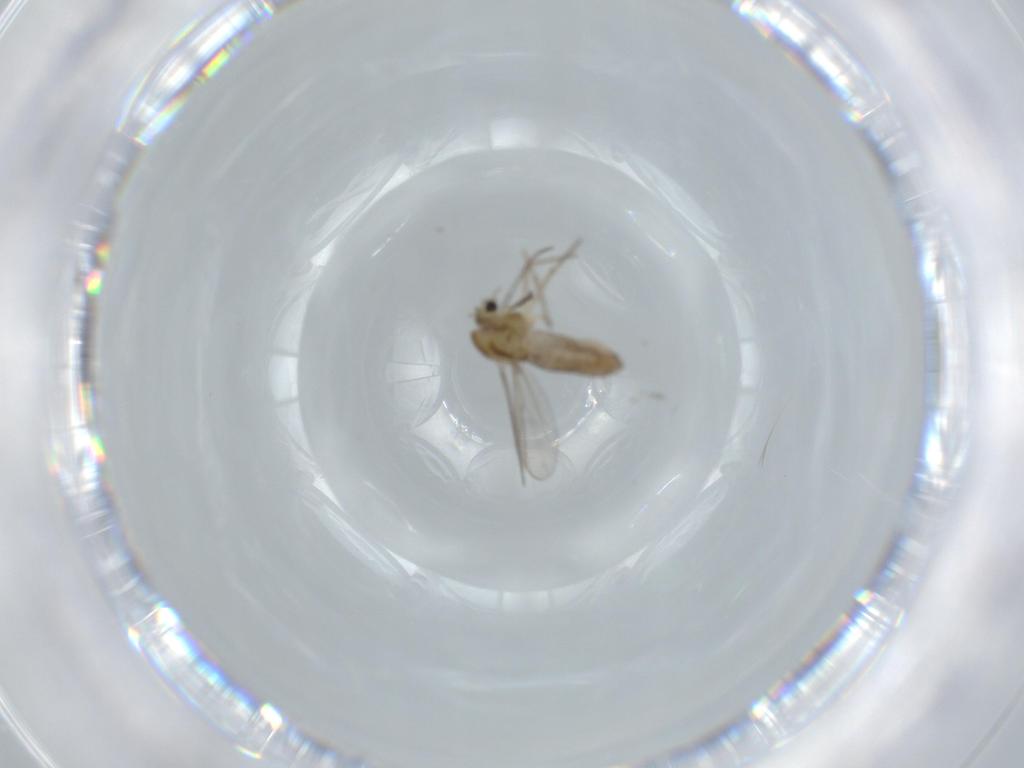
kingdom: Animalia
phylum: Arthropoda
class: Insecta
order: Diptera
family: Chironomidae
